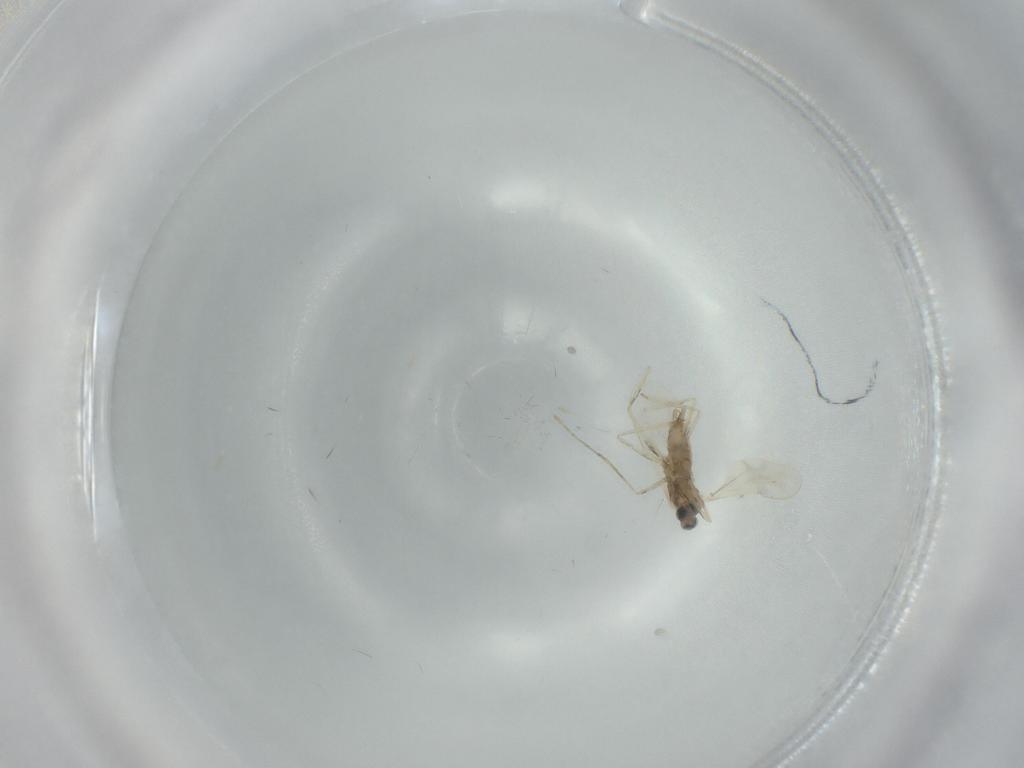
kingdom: Animalia
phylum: Arthropoda
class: Insecta
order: Diptera
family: Cecidomyiidae
